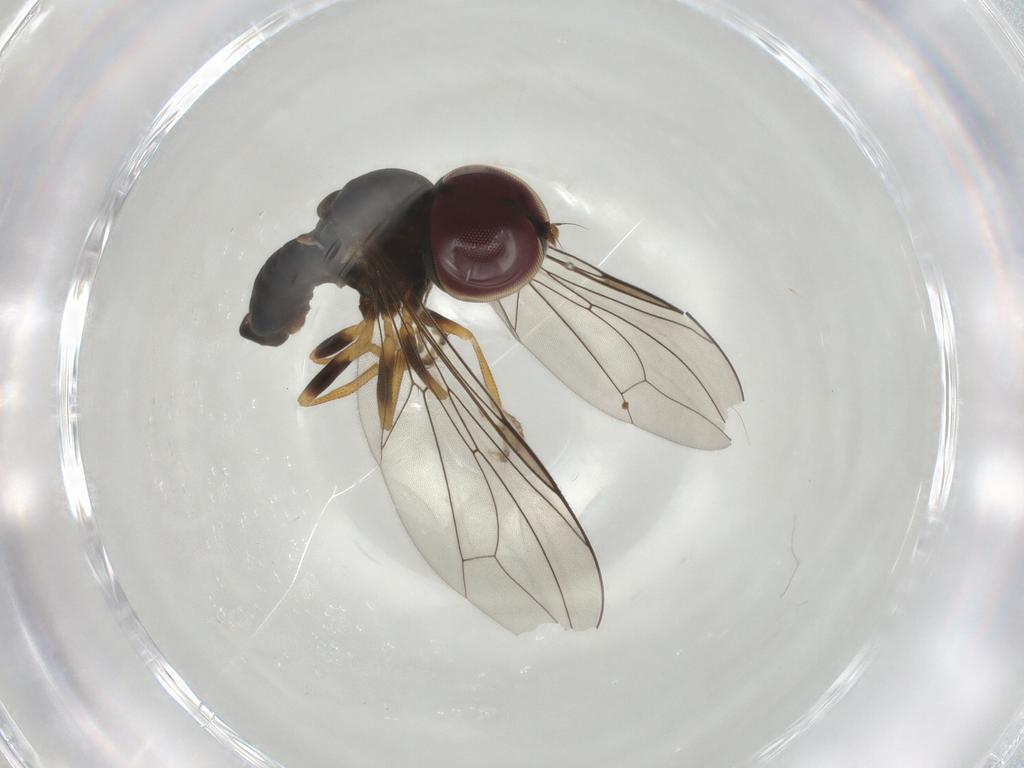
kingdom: Animalia
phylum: Arthropoda
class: Insecta
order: Diptera
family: Pipunculidae
